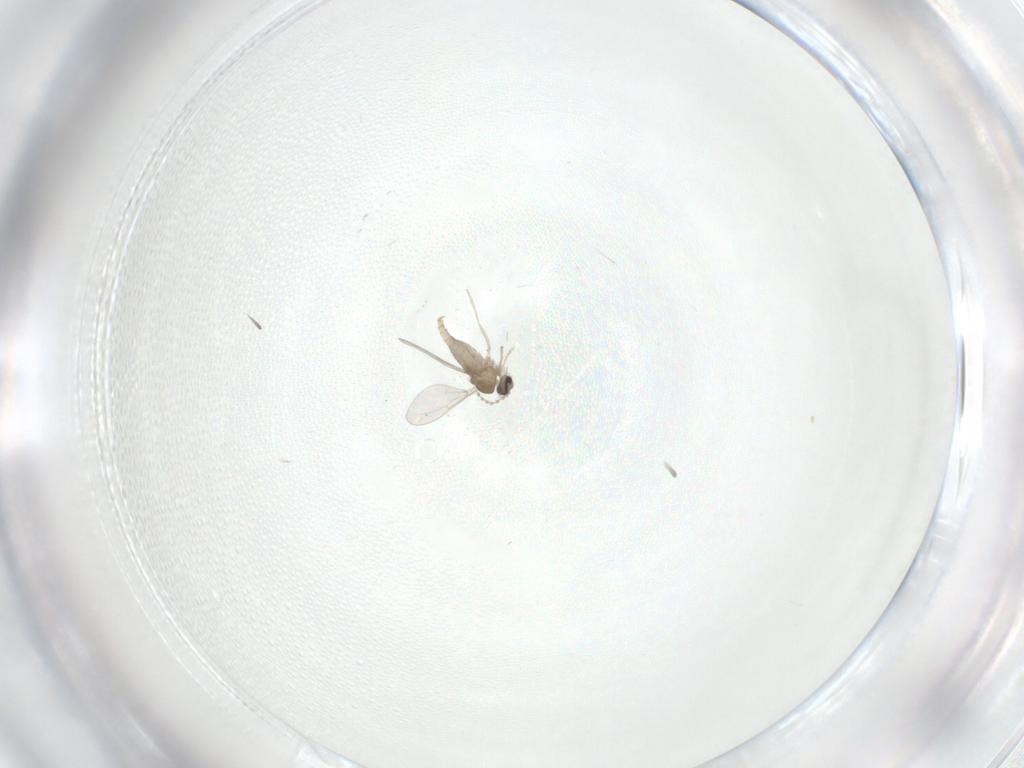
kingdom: Animalia
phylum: Arthropoda
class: Insecta
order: Diptera
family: Cecidomyiidae
